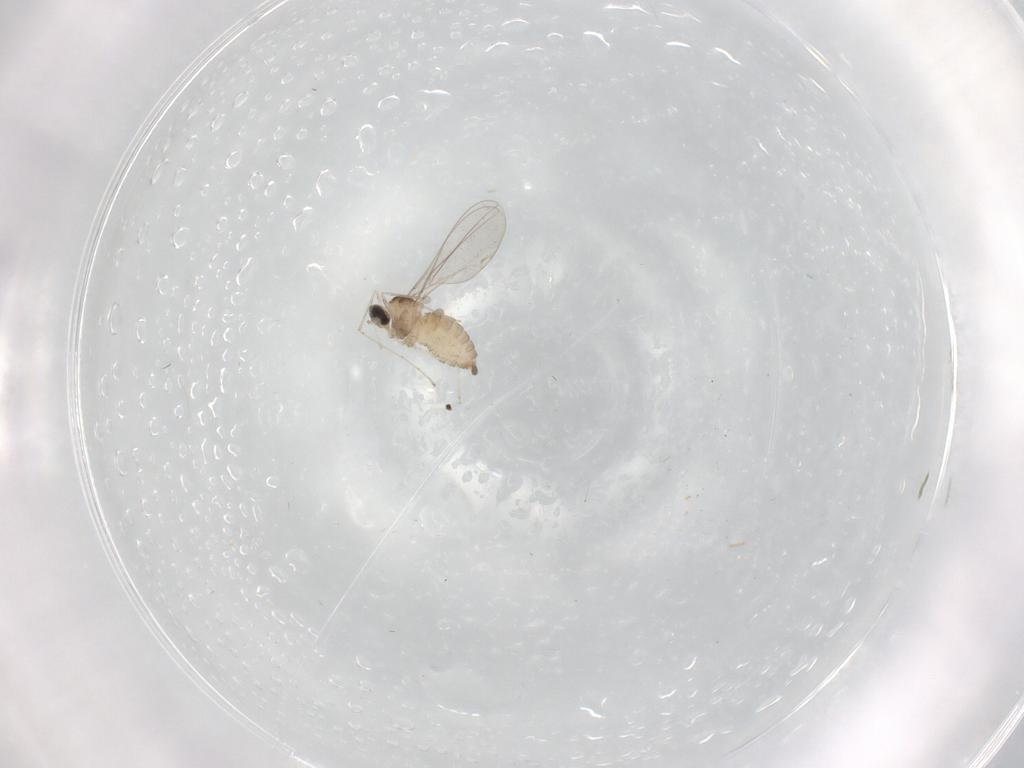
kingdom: Animalia
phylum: Arthropoda
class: Insecta
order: Diptera
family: Cecidomyiidae
